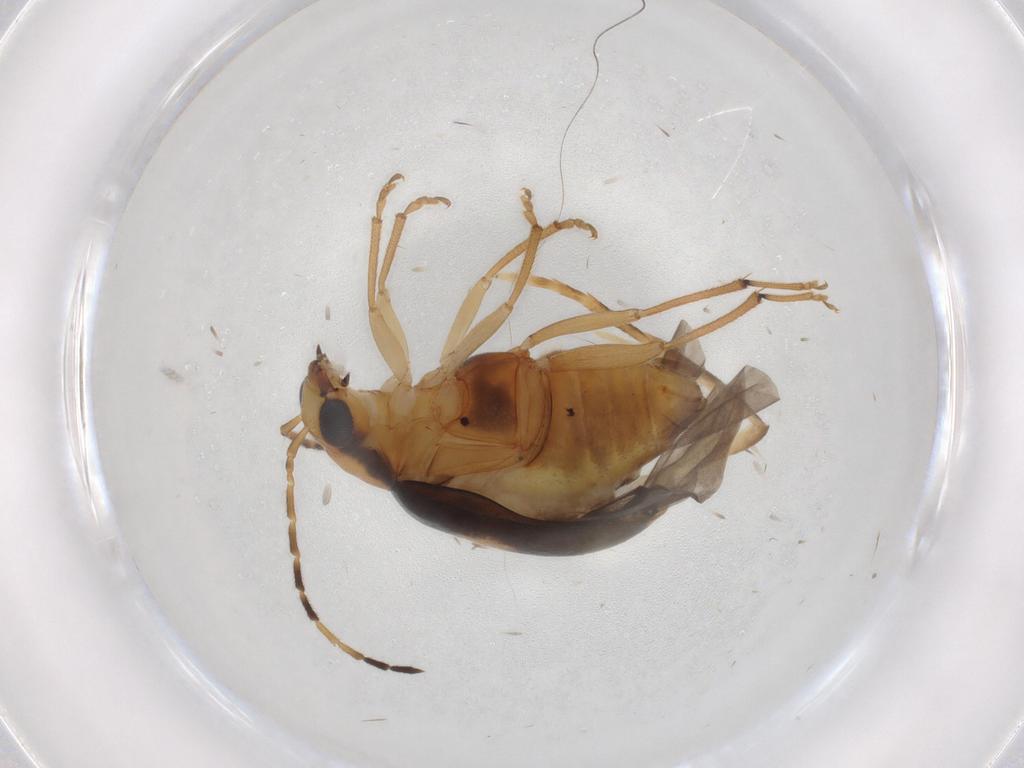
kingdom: Animalia
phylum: Arthropoda
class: Insecta
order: Coleoptera
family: Chrysomelidae
